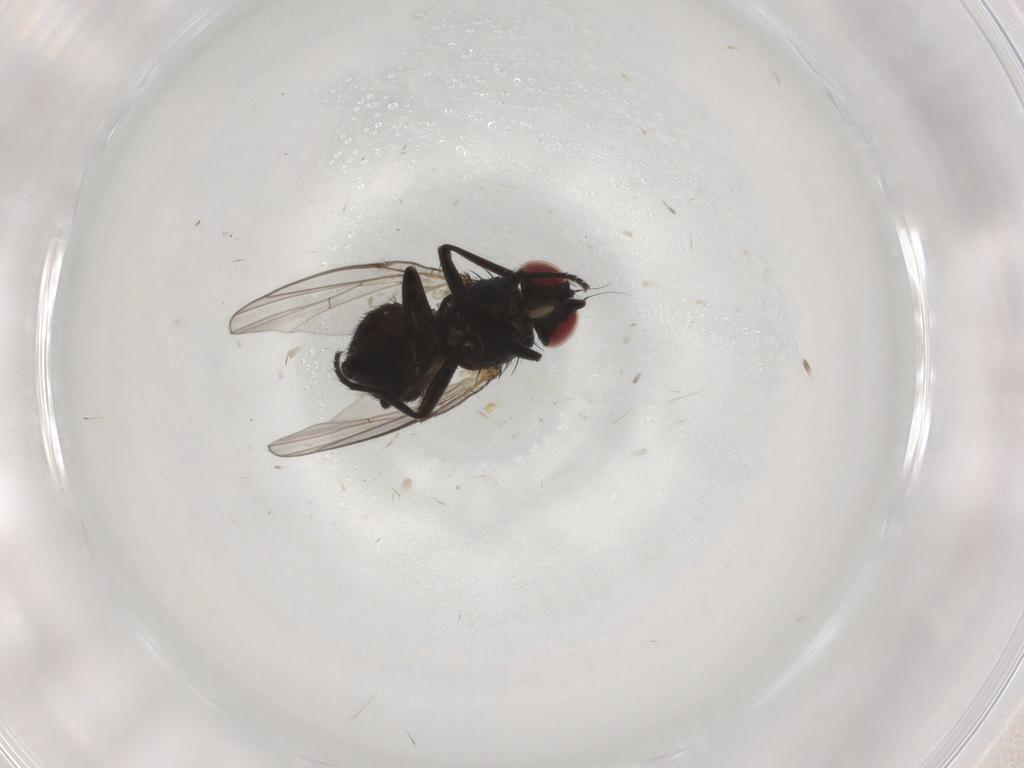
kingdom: Animalia
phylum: Arthropoda
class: Insecta
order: Diptera
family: Agromyzidae
